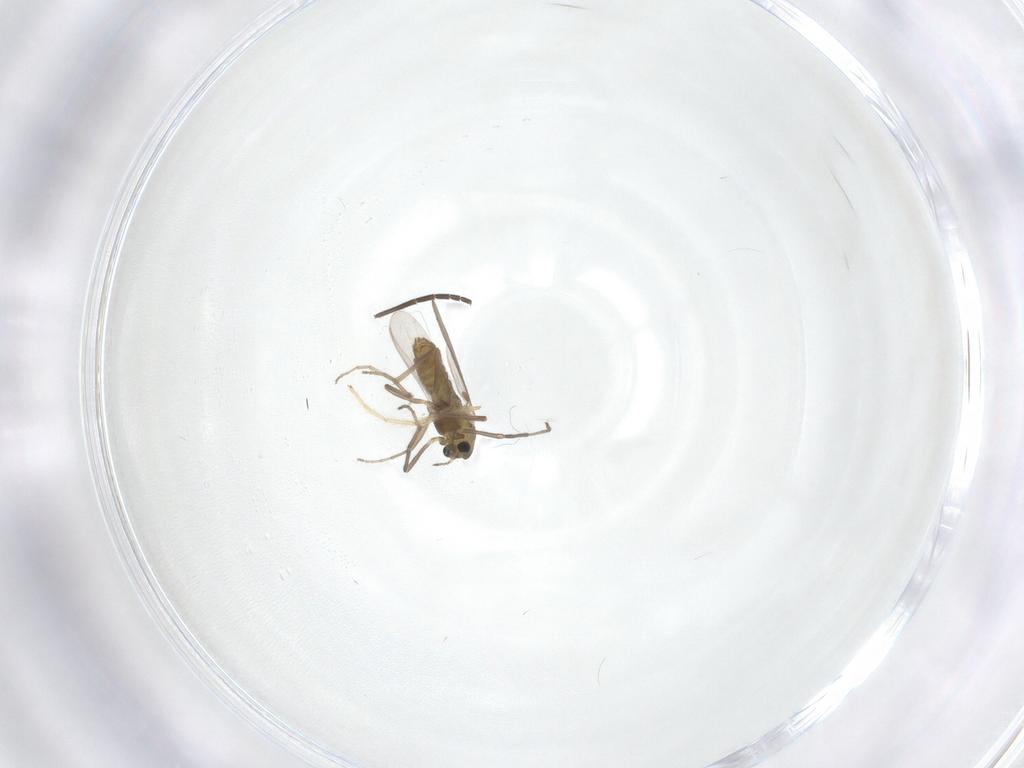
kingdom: Animalia
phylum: Arthropoda
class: Insecta
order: Diptera
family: Chironomidae
